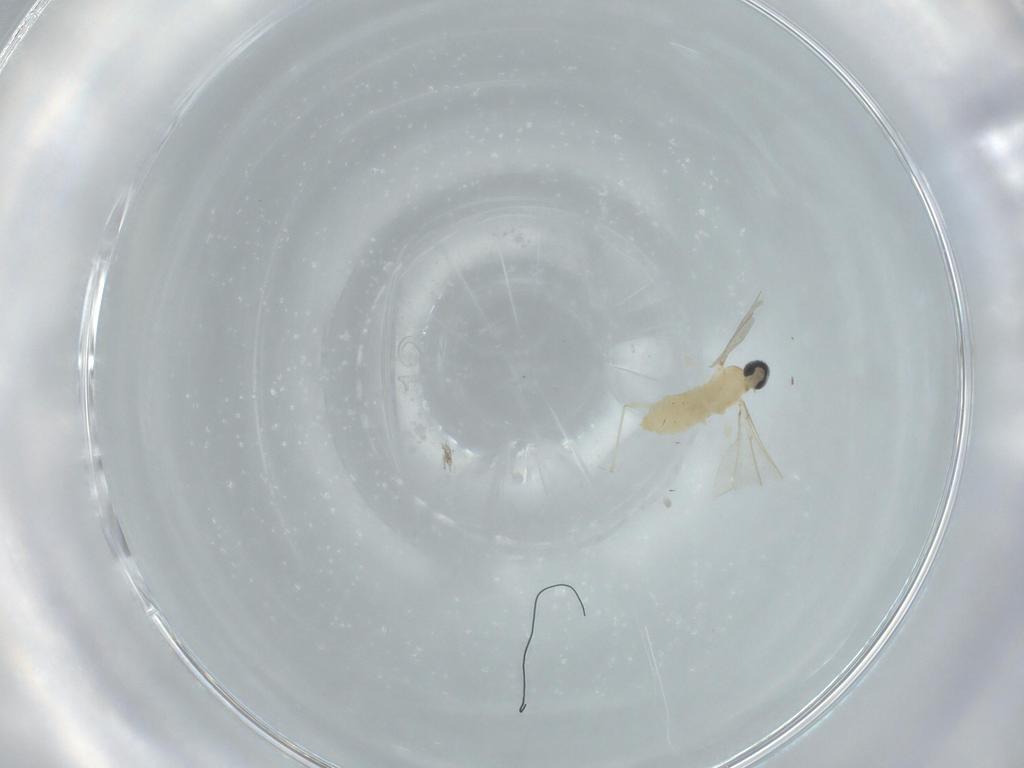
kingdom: Animalia
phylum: Arthropoda
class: Insecta
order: Diptera
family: Cecidomyiidae
